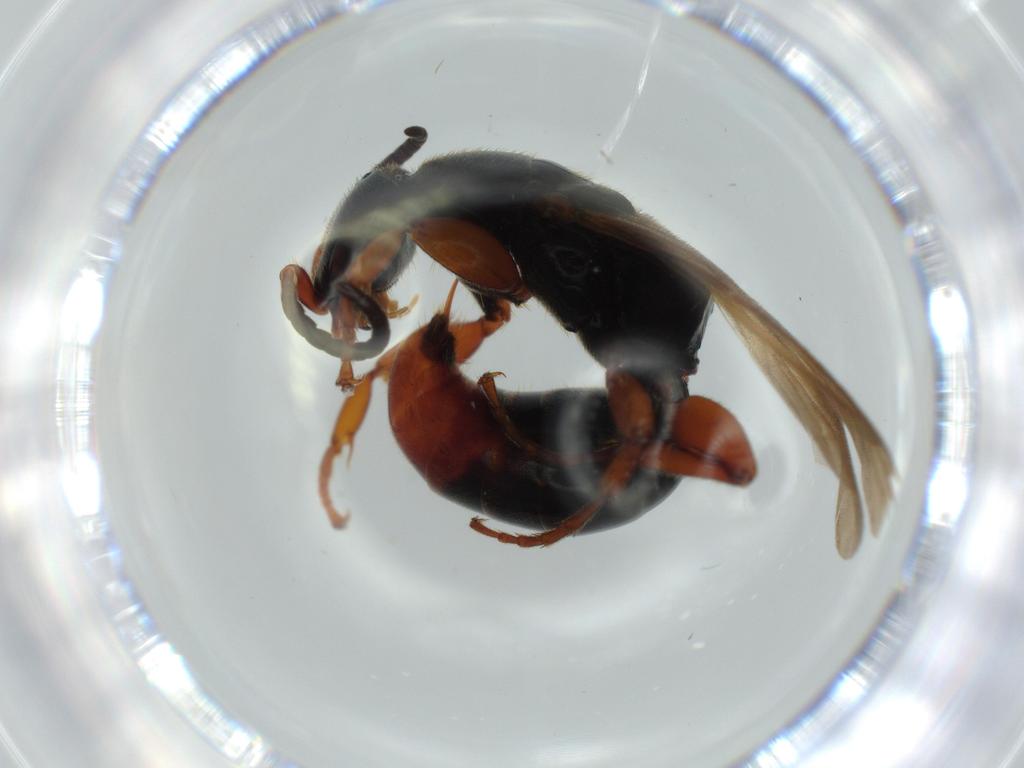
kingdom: Animalia
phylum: Arthropoda
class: Insecta
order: Hymenoptera
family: Bethylidae
